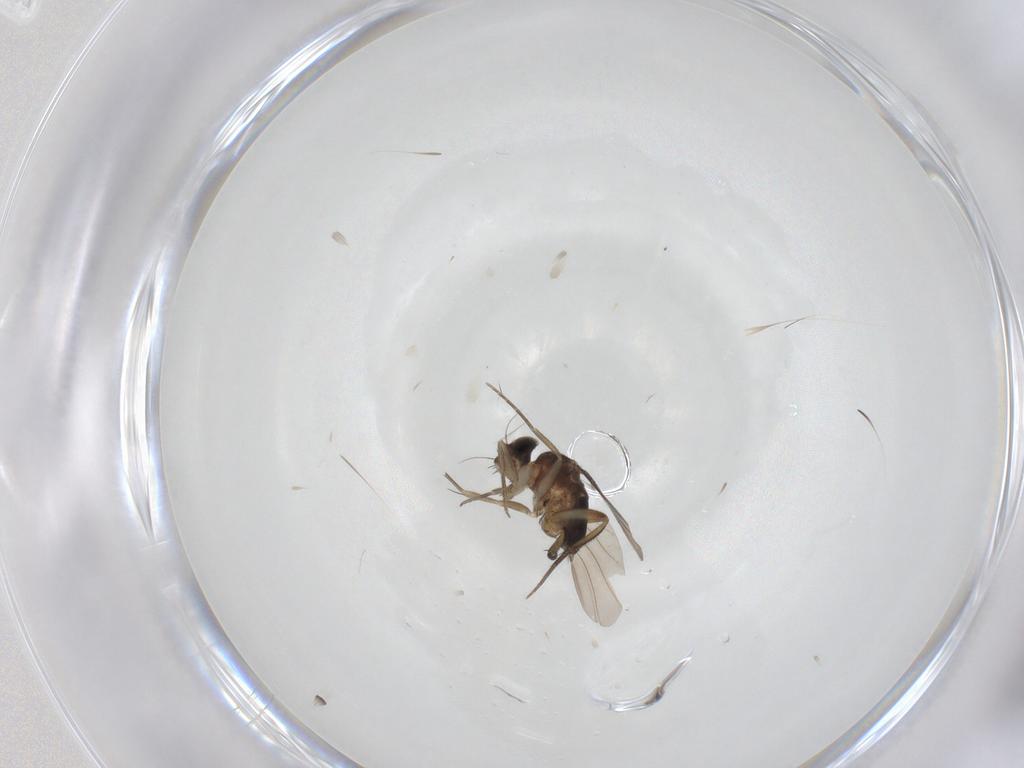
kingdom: Animalia
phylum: Arthropoda
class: Insecta
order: Diptera
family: Phoridae
